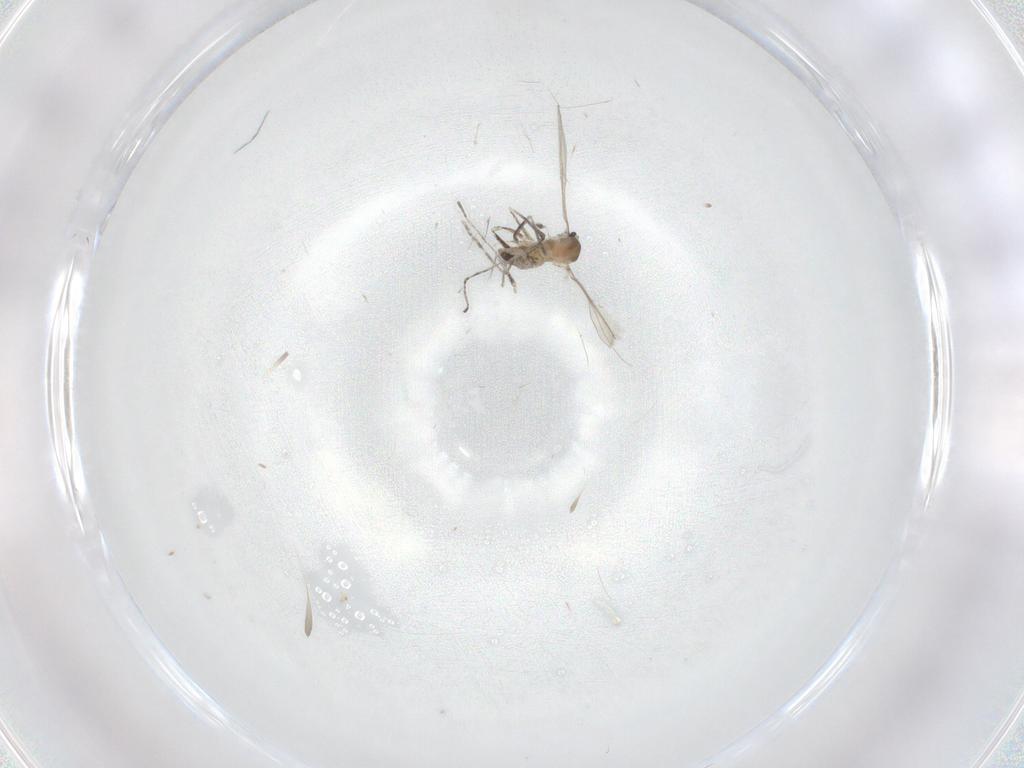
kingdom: Animalia
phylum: Arthropoda
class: Insecta
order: Diptera
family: Cecidomyiidae
